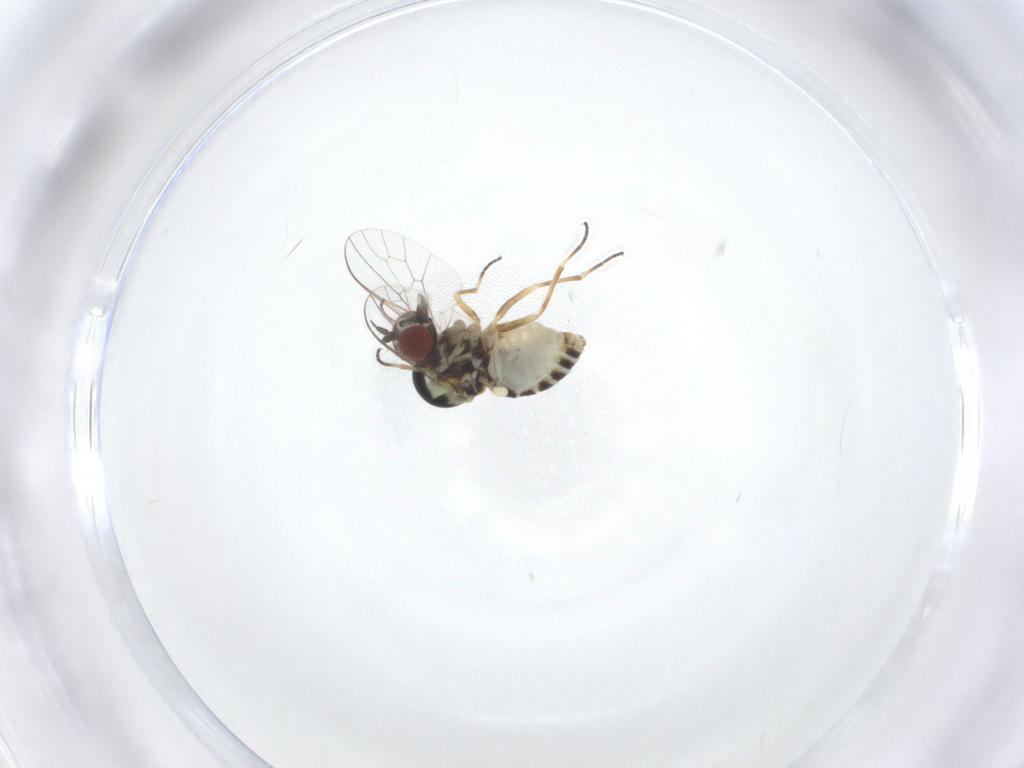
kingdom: Animalia
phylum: Arthropoda
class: Insecta
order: Diptera
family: Bombyliidae
